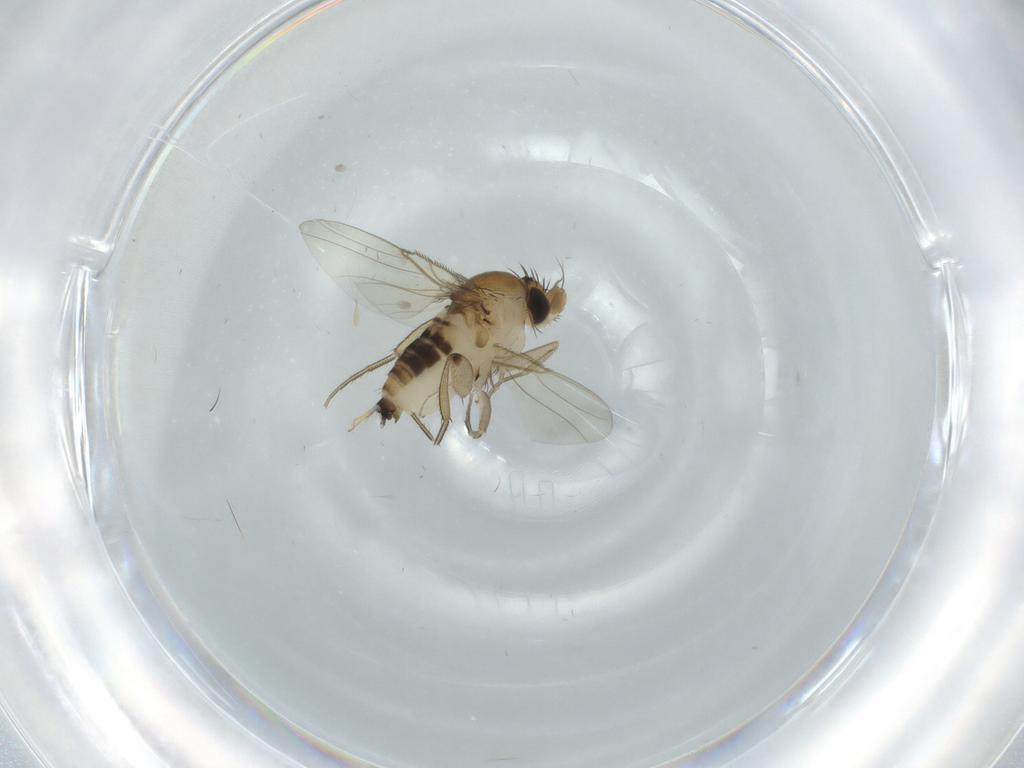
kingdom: Animalia
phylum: Arthropoda
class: Insecta
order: Diptera
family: Phoridae
